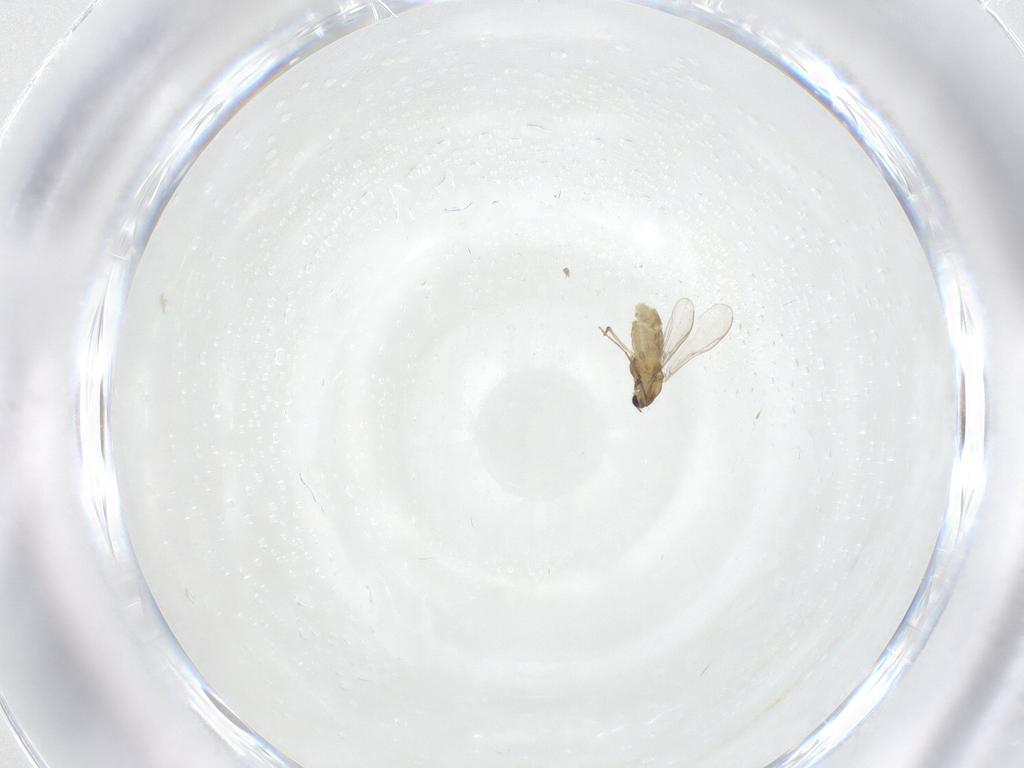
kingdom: Animalia
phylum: Arthropoda
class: Insecta
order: Diptera
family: Chironomidae
